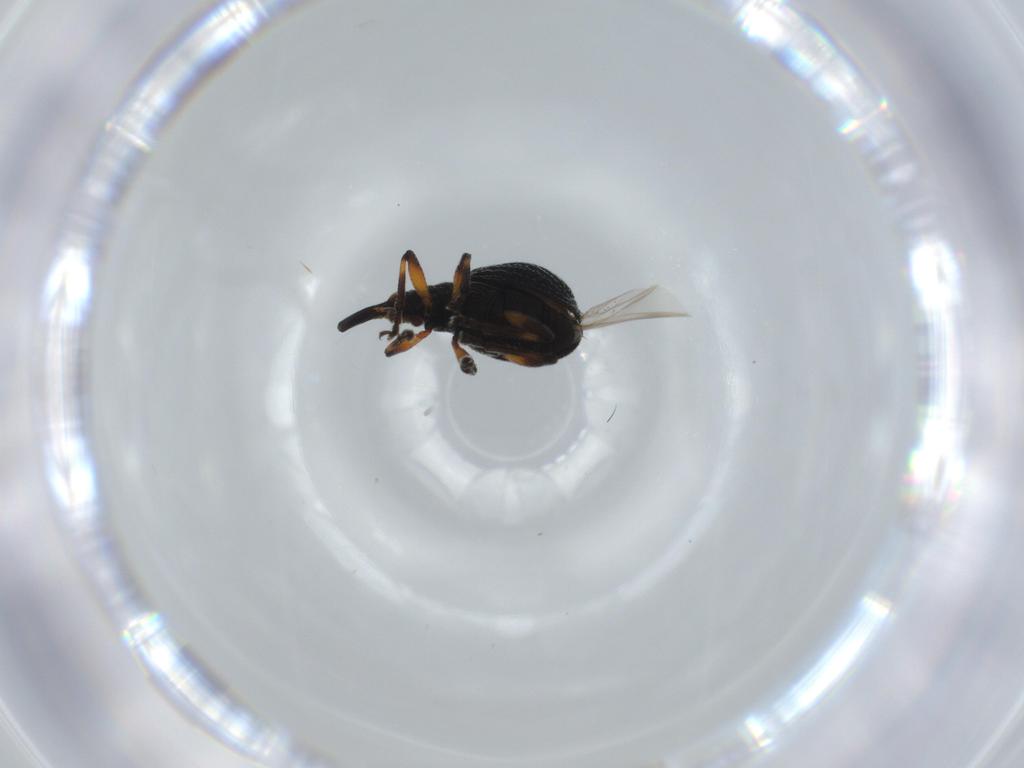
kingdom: Animalia
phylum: Arthropoda
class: Insecta
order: Coleoptera
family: Brentidae
